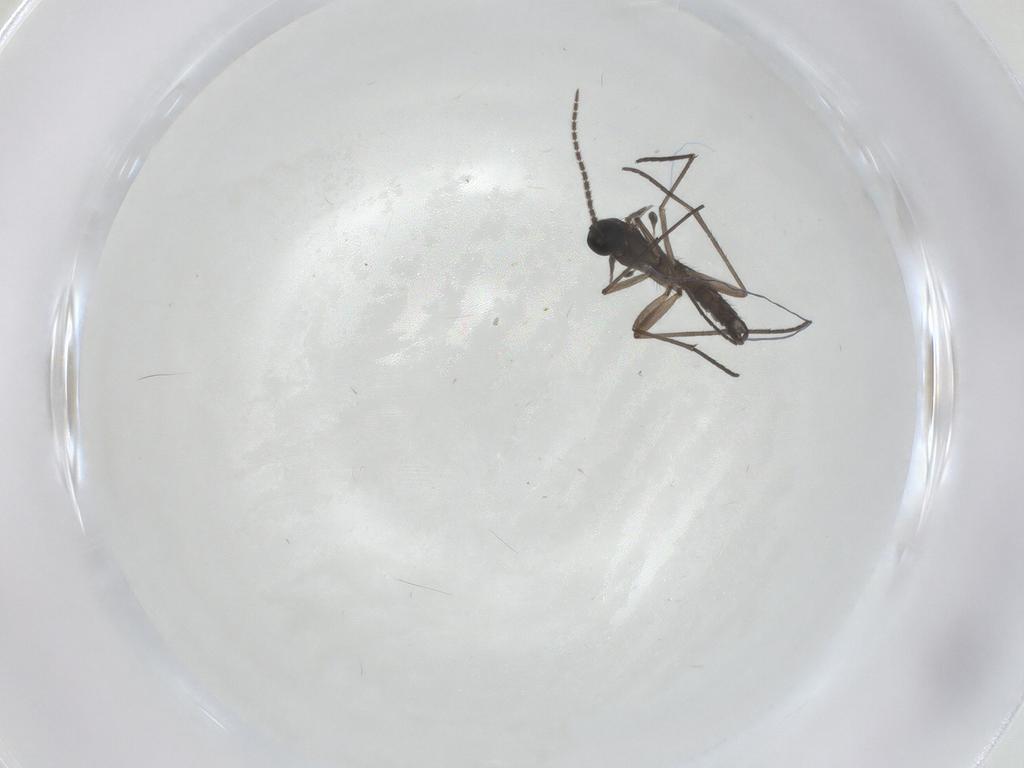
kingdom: Animalia
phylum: Arthropoda
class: Insecta
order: Diptera
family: Sciaridae
